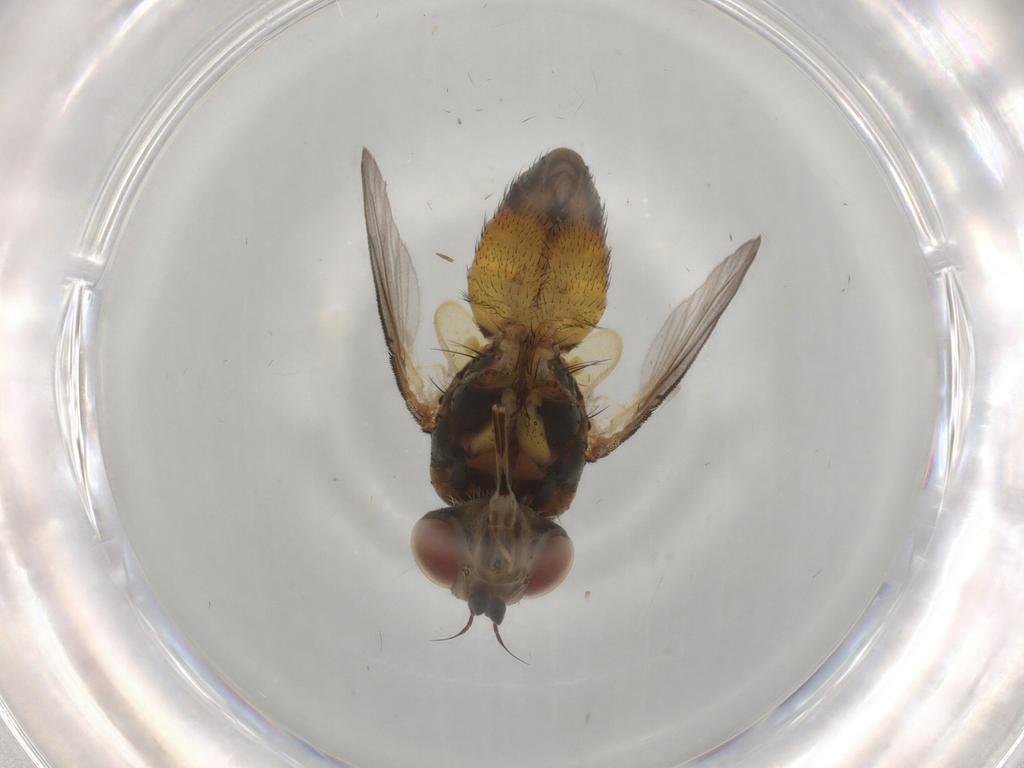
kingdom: Animalia
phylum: Arthropoda
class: Insecta
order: Diptera
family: Tachinidae
